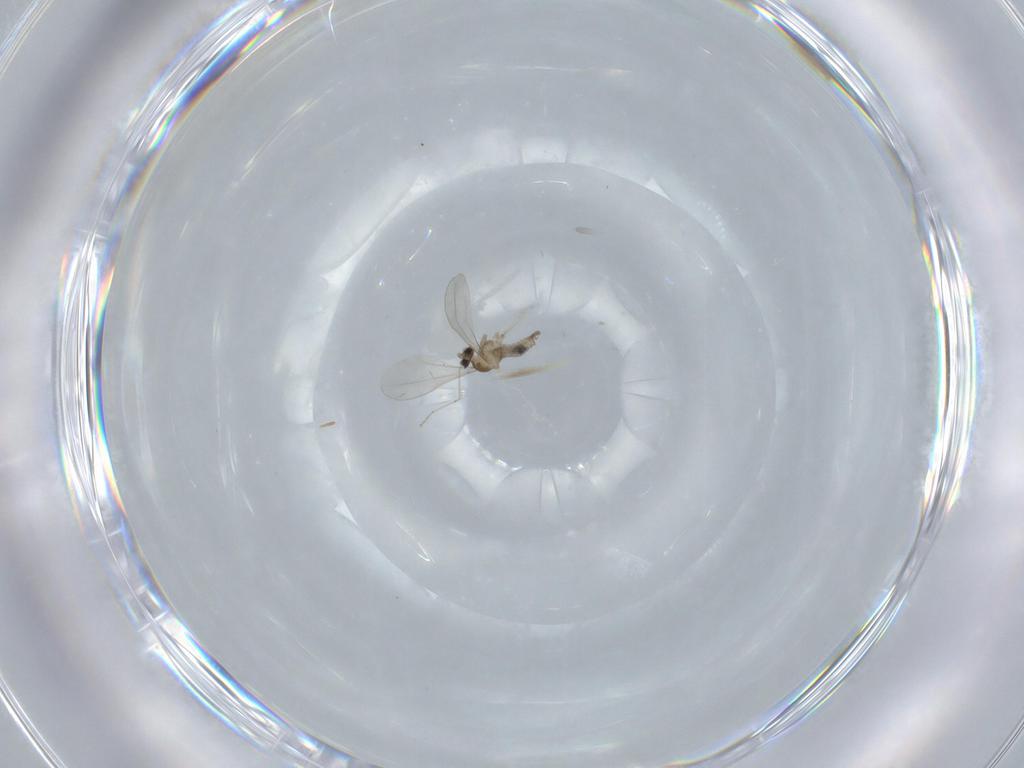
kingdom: Animalia
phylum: Arthropoda
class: Insecta
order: Diptera
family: Cecidomyiidae
